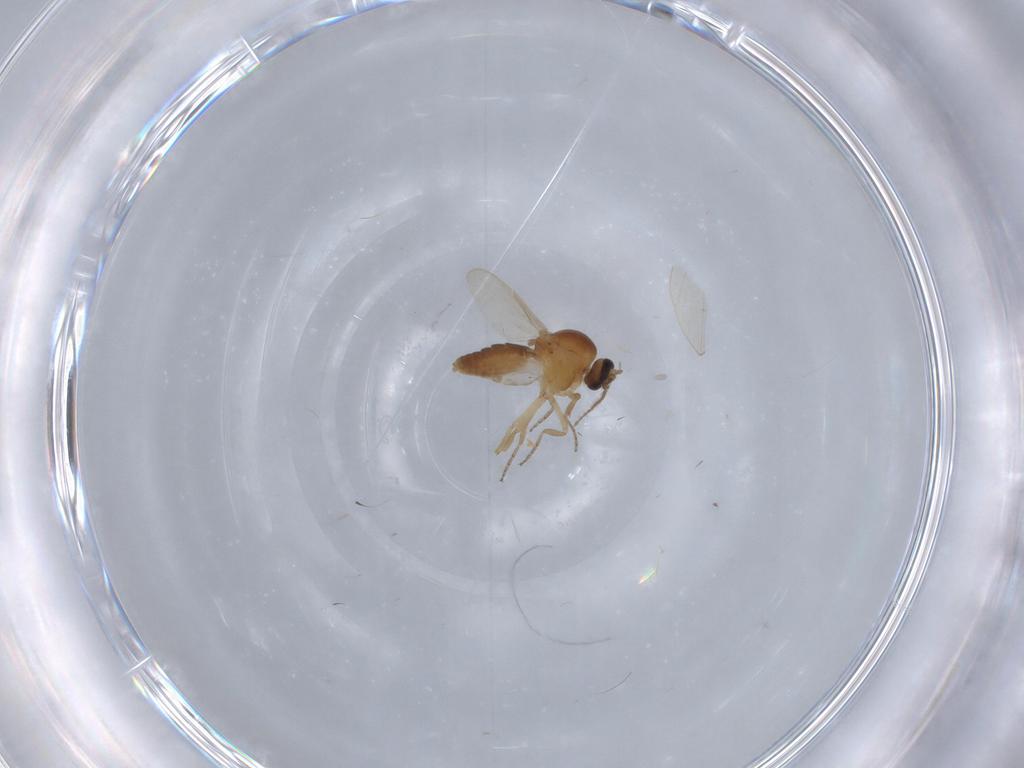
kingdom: Animalia
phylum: Arthropoda
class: Insecta
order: Diptera
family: Ceratopogonidae
